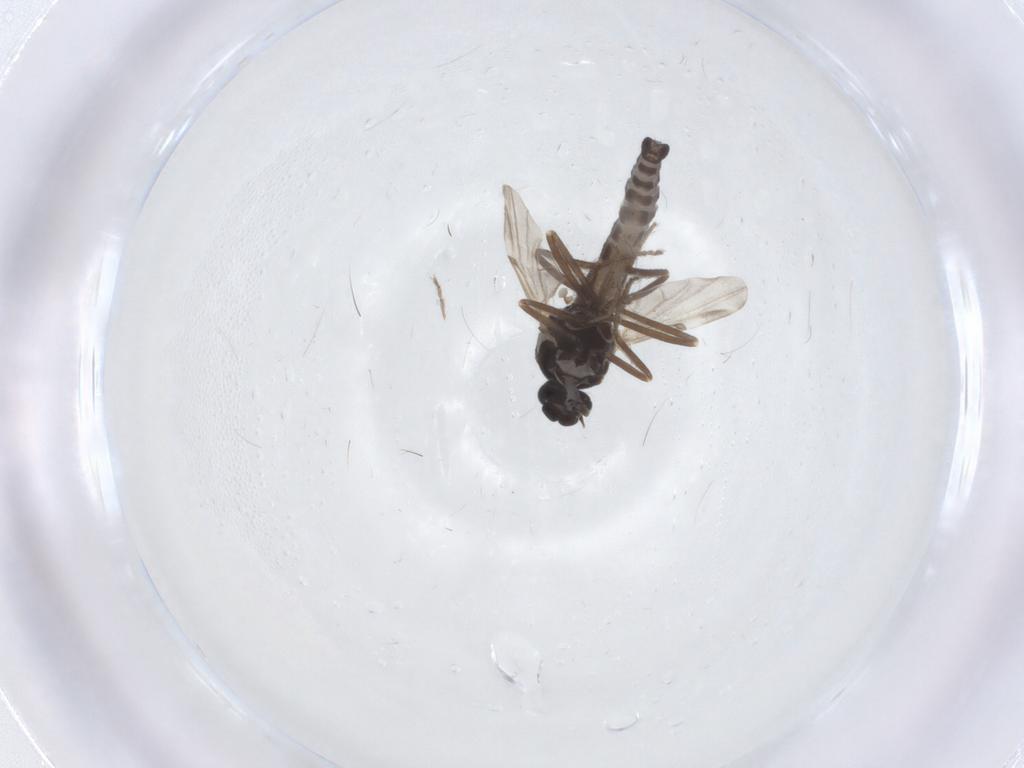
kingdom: Animalia
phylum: Arthropoda
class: Insecta
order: Diptera
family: Ceratopogonidae
